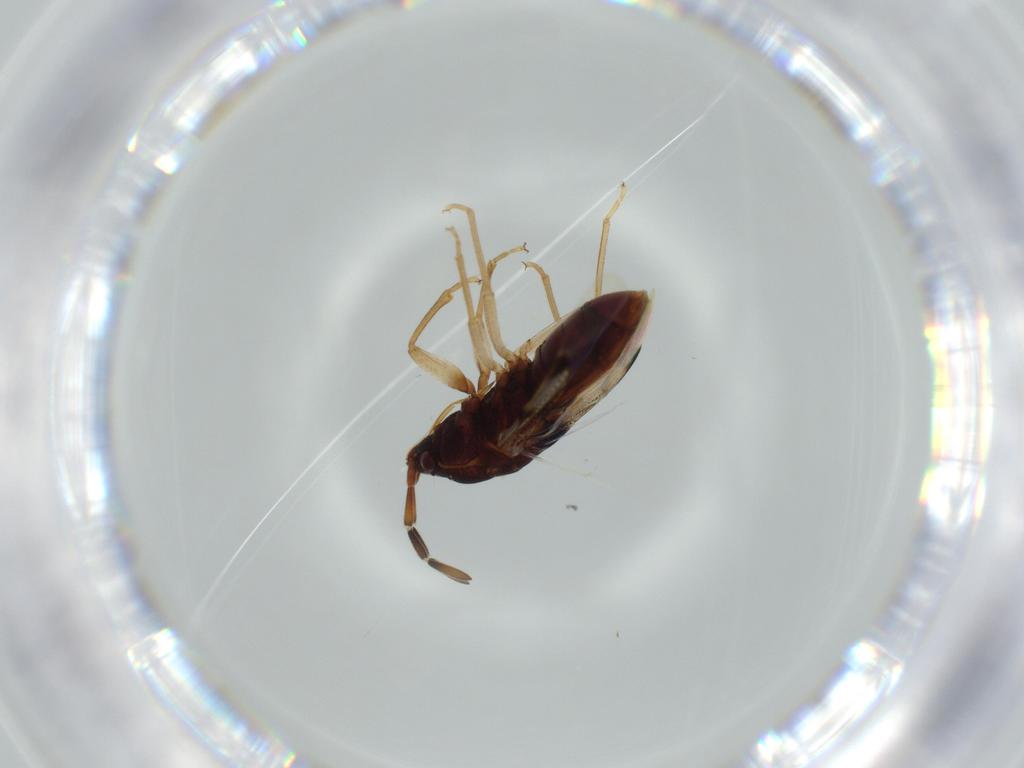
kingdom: Animalia
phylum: Arthropoda
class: Insecta
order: Hemiptera
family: Rhyparochromidae
